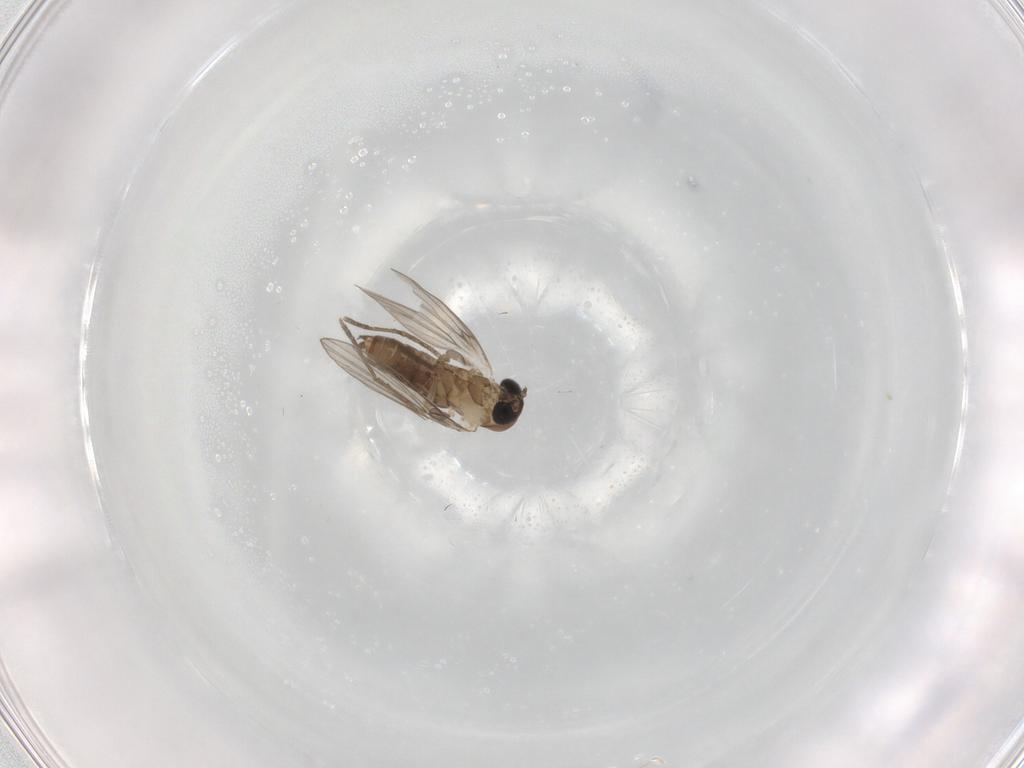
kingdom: Animalia
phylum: Arthropoda
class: Insecta
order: Diptera
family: Psychodidae
